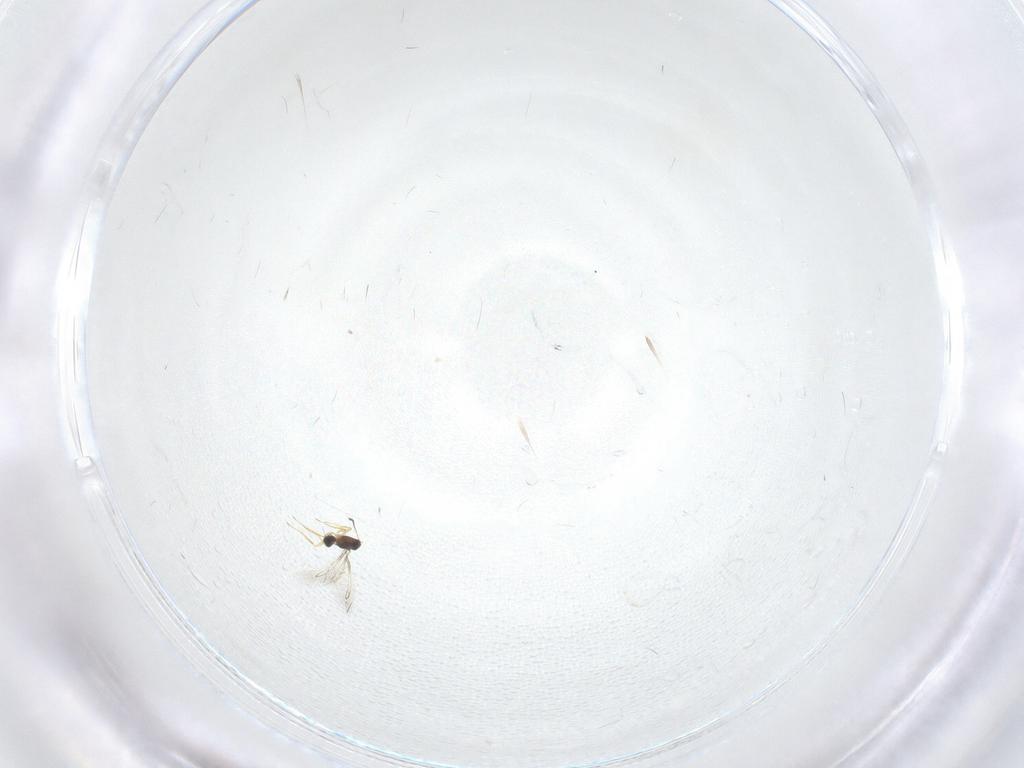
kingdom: Animalia
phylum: Arthropoda
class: Insecta
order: Hymenoptera
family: Mymaridae
